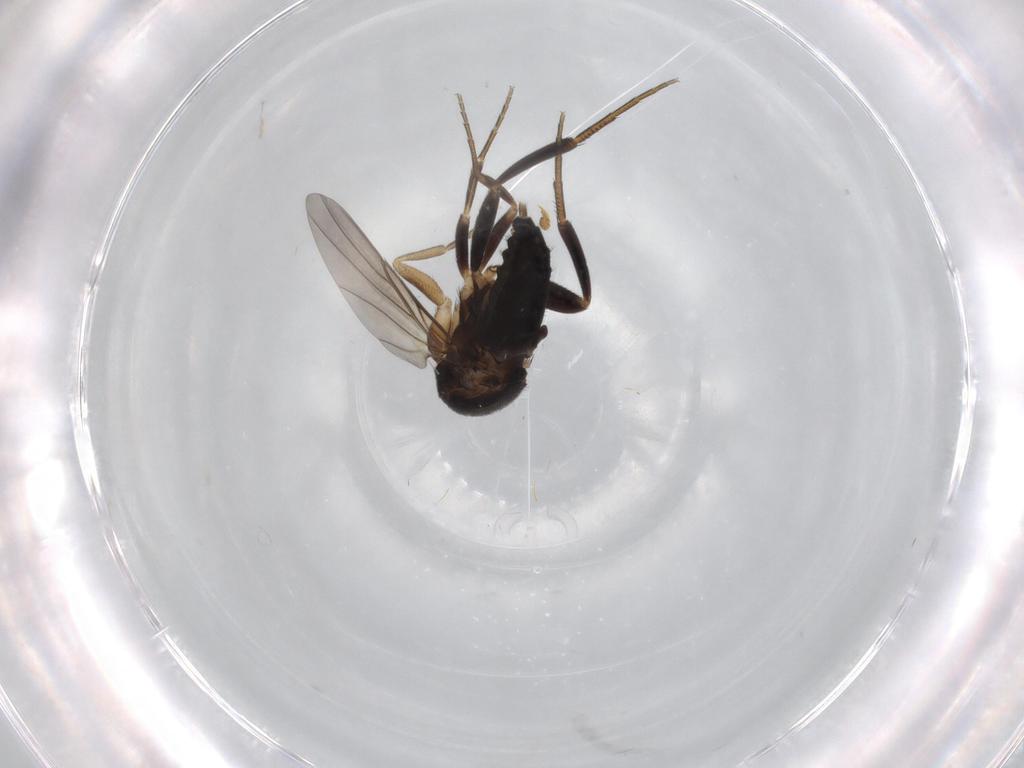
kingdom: Animalia
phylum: Arthropoda
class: Insecta
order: Diptera
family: Phoridae
